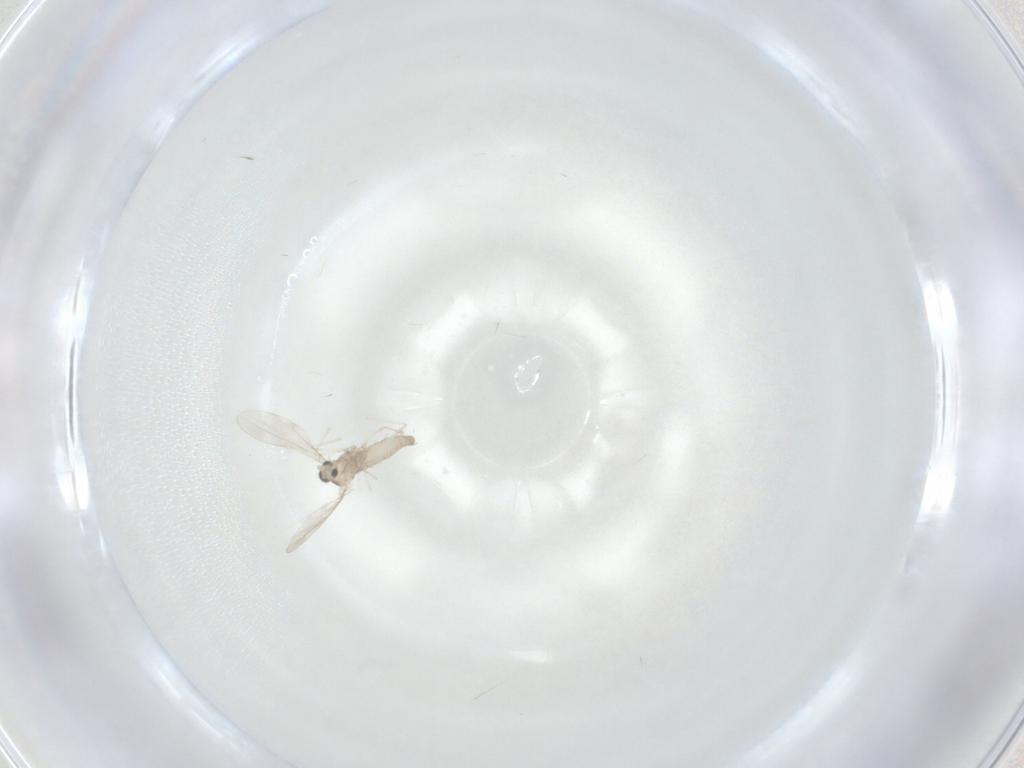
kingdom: Animalia
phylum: Arthropoda
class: Insecta
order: Diptera
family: Cecidomyiidae
